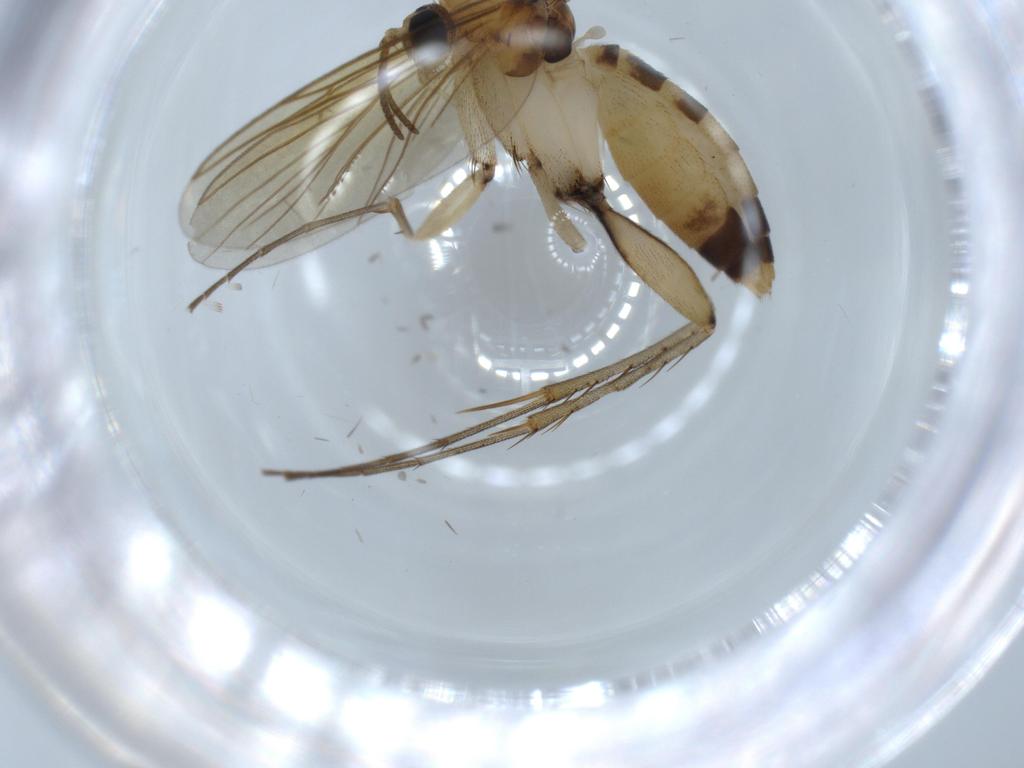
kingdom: Animalia
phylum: Arthropoda
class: Insecta
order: Diptera
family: Mycetophilidae
